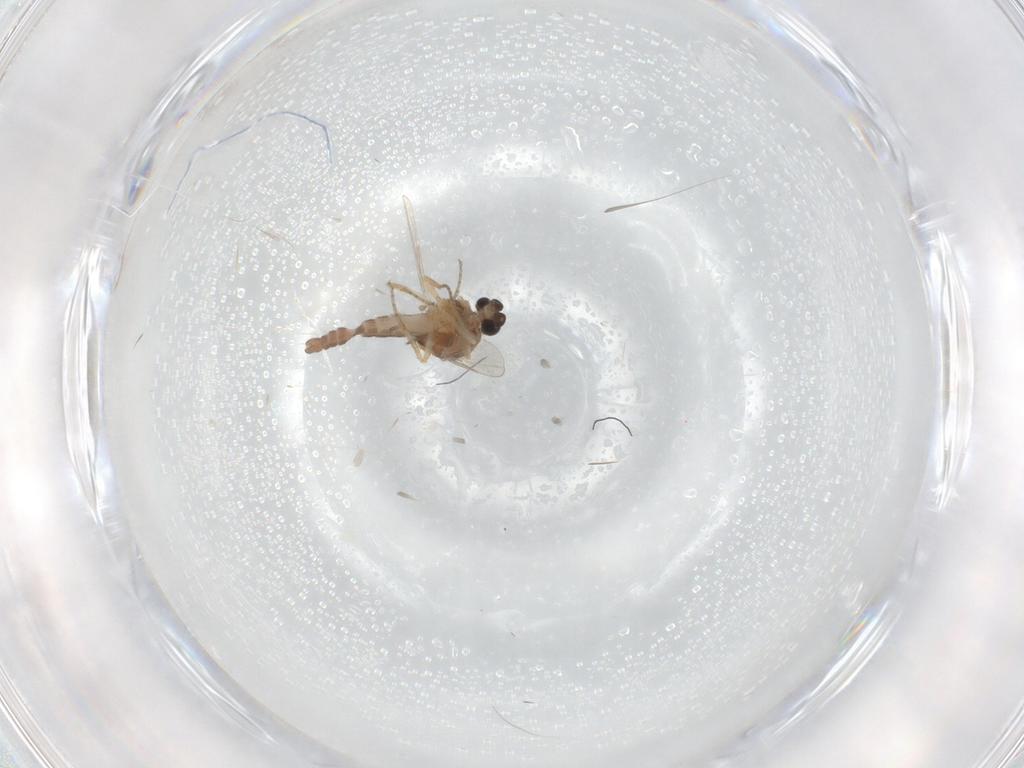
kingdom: Animalia
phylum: Arthropoda
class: Insecta
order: Diptera
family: Ceratopogonidae
